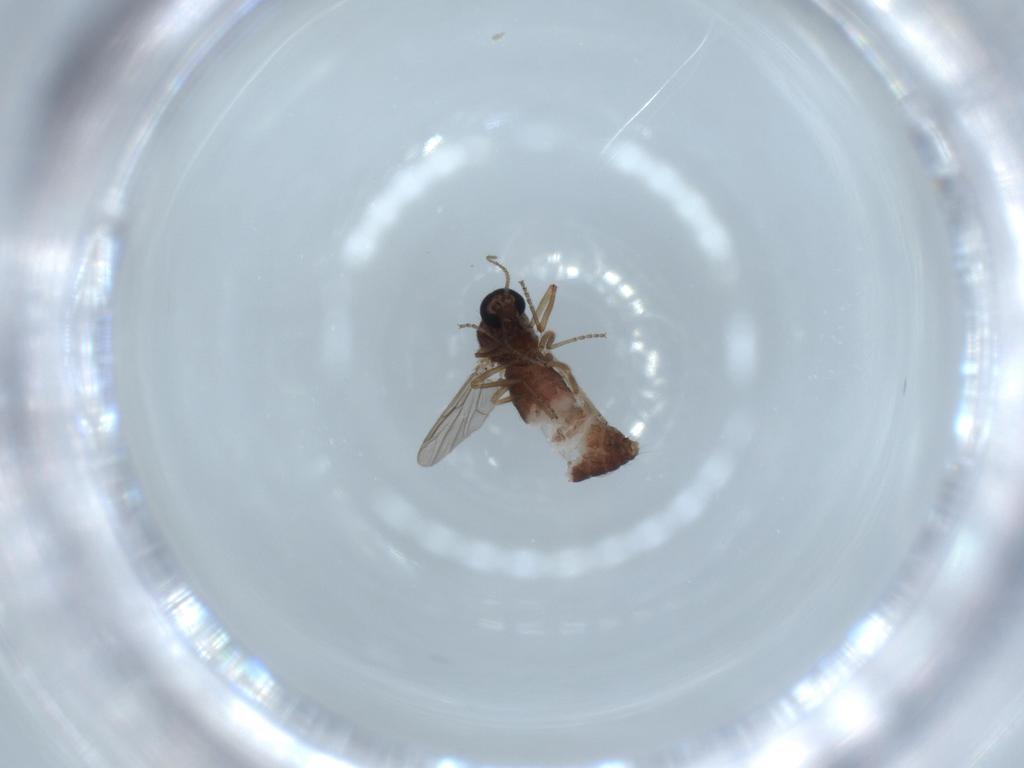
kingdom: Animalia
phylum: Arthropoda
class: Insecta
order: Diptera
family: Ceratopogonidae
